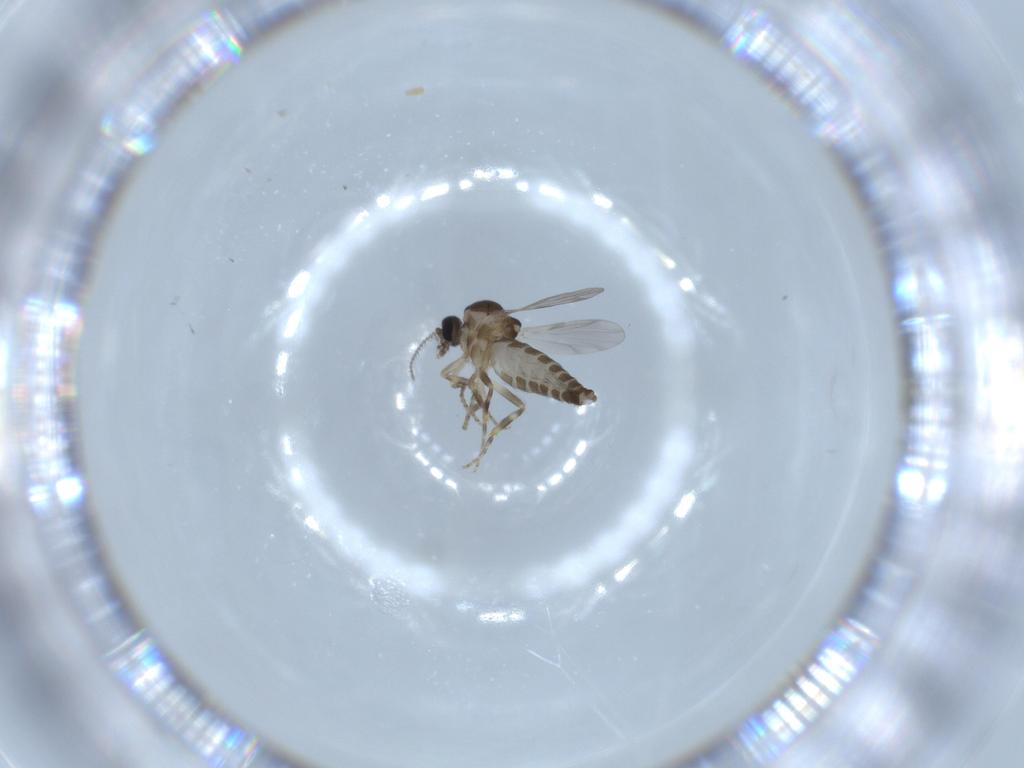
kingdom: Animalia
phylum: Arthropoda
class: Insecta
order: Diptera
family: Ceratopogonidae
